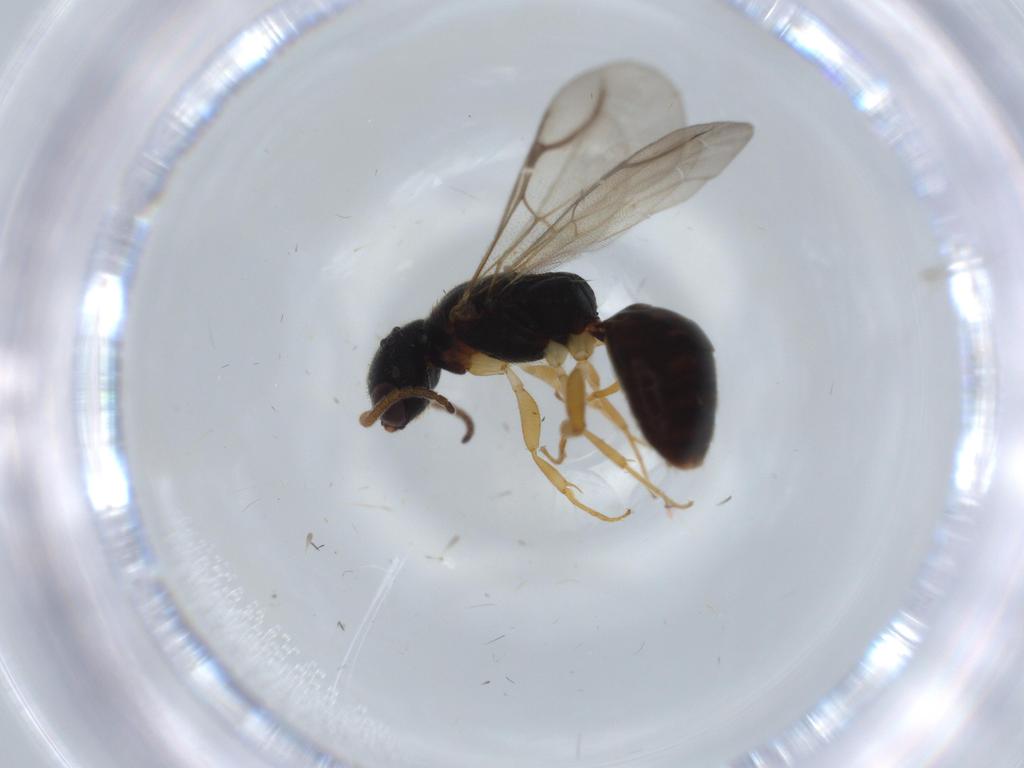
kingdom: Animalia
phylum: Arthropoda
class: Insecta
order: Hymenoptera
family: Bethylidae
